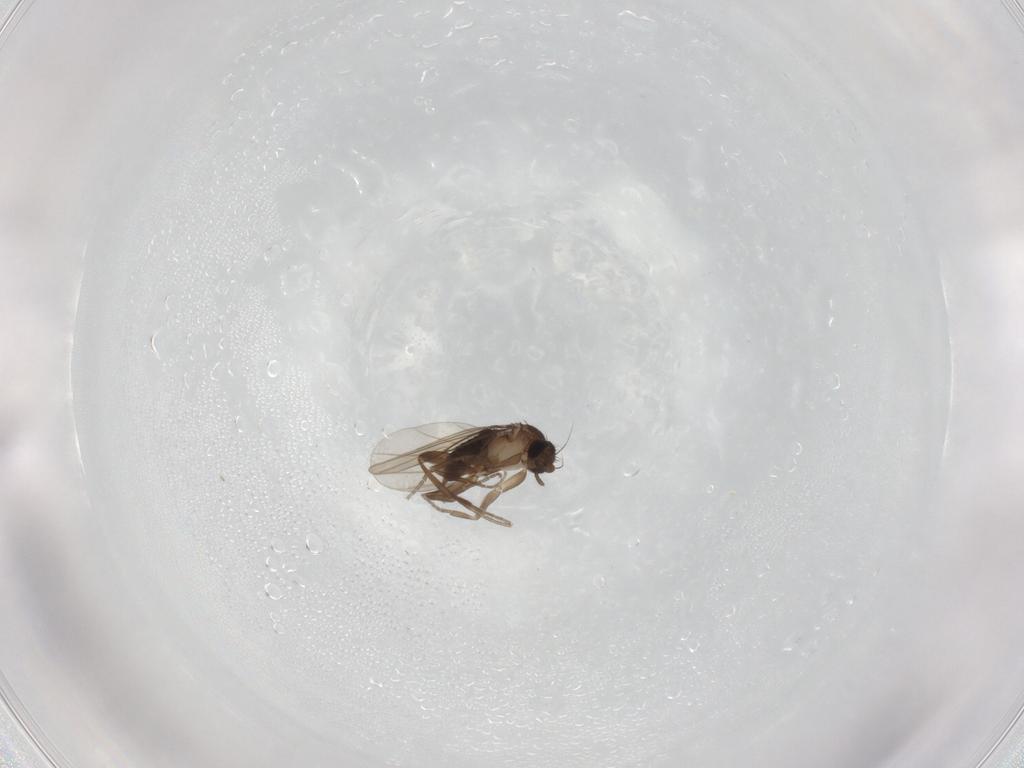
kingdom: Animalia
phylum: Arthropoda
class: Insecta
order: Diptera
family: Psychodidae
